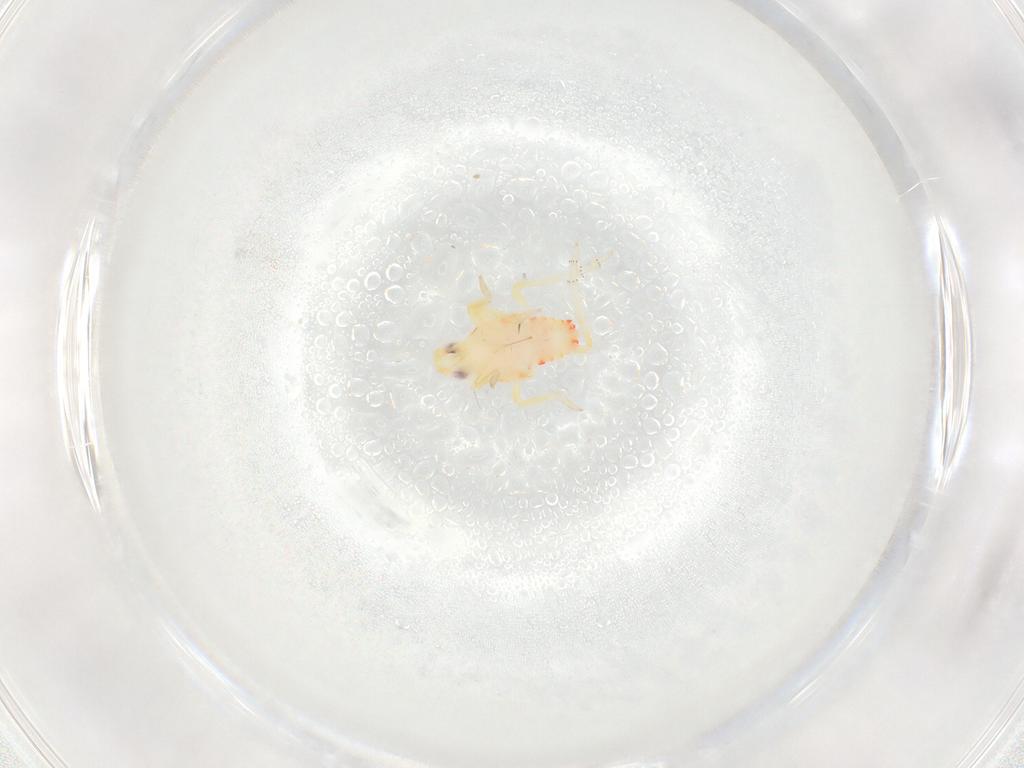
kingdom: Animalia
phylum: Arthropoda
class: Insecta
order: Hemiptera
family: Tropiduchidae
